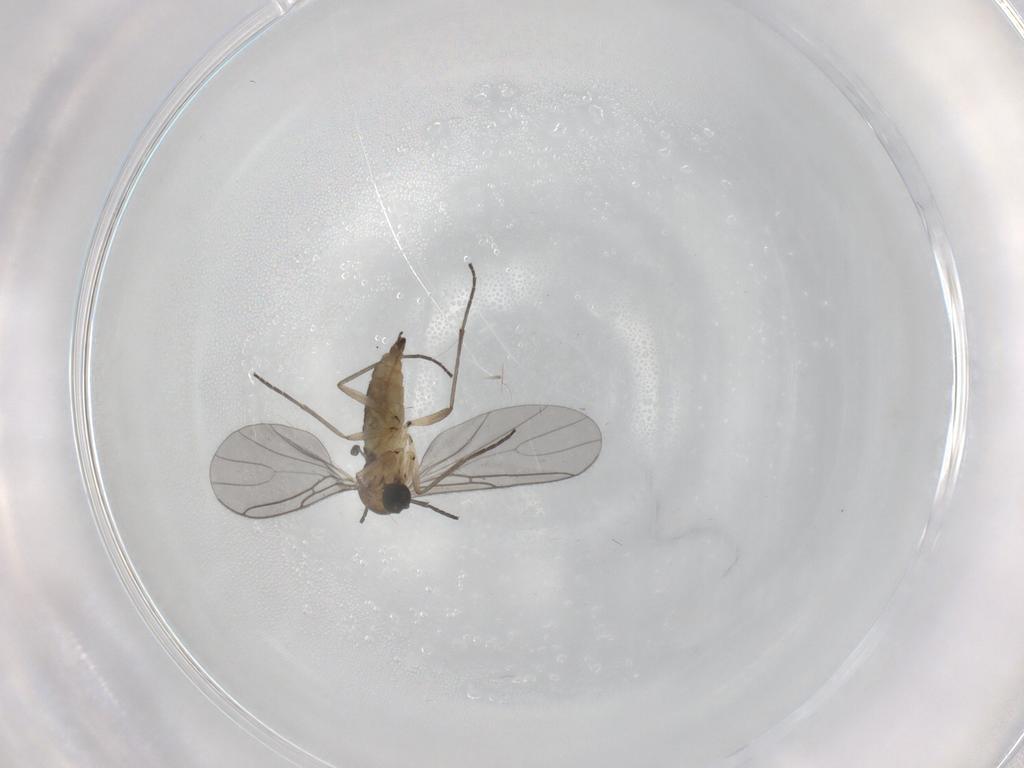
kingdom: Animalia
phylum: Arthropoda
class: Insecta
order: Diptera
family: Sciaridae
